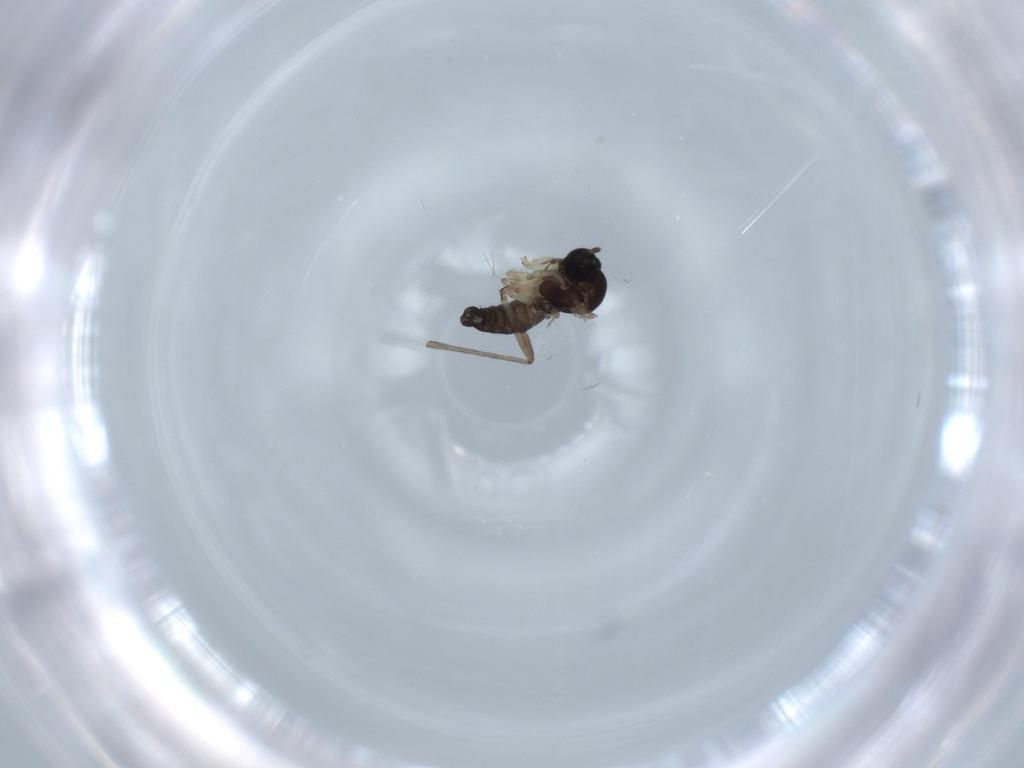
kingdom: Animalia
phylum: Arthropoda
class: Insecta
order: Diptera
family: Sciaridae
